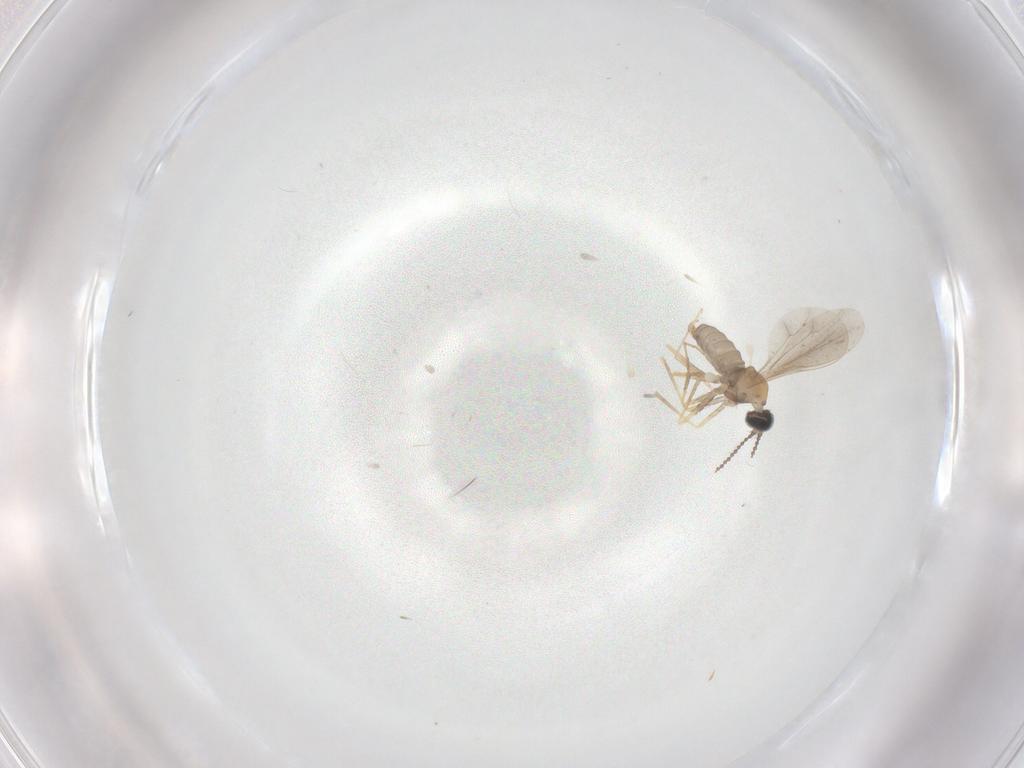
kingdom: Animalia
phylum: Arthropoda
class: Insecta
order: Diptera
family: Cecidomyiidae
